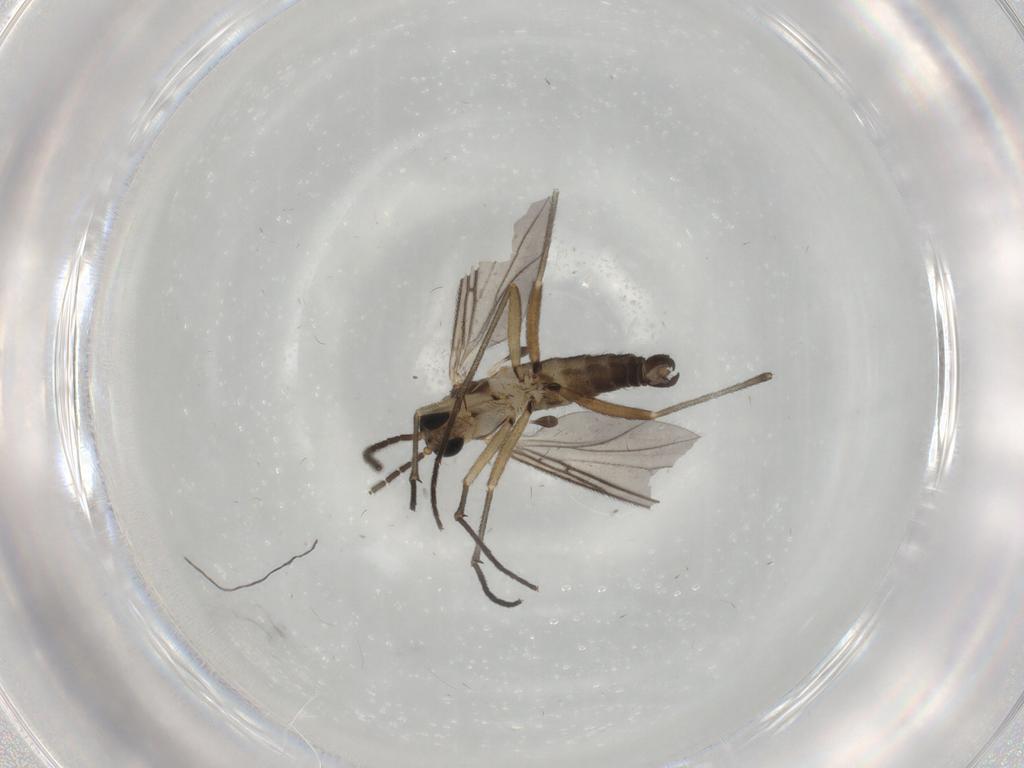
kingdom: Animalia
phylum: Arthropoda
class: Insecta
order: Diptera
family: Sciaridae
